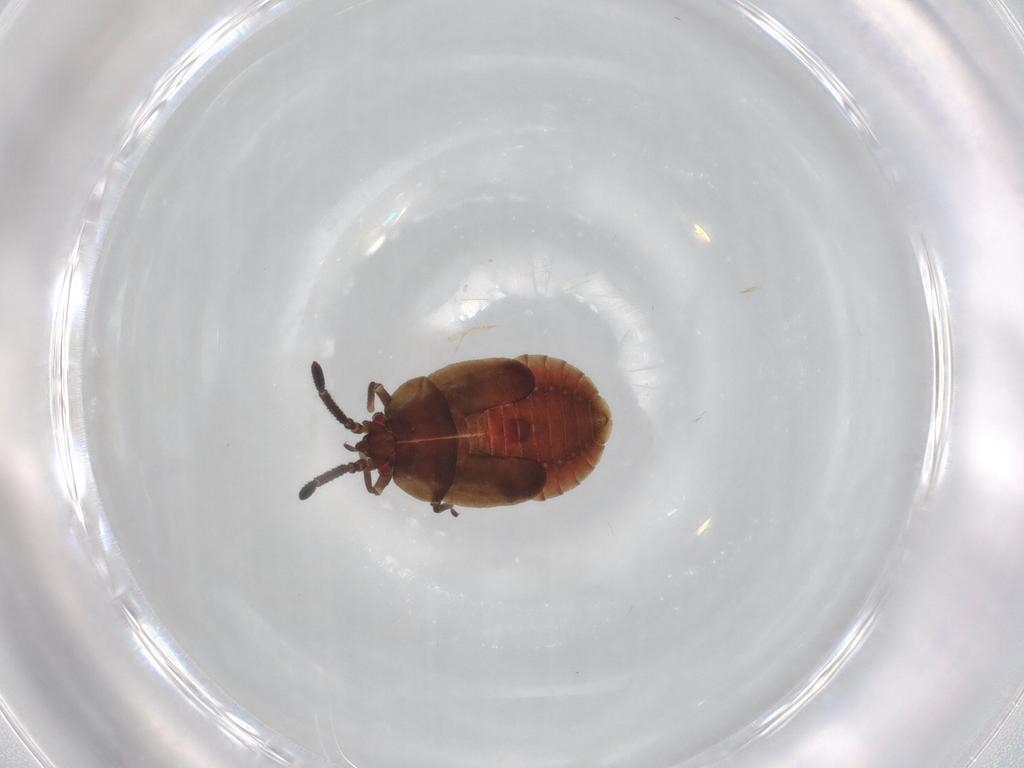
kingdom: Animalia
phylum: Arthropoda
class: Insecta
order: Hemiptera
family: Tingidae
